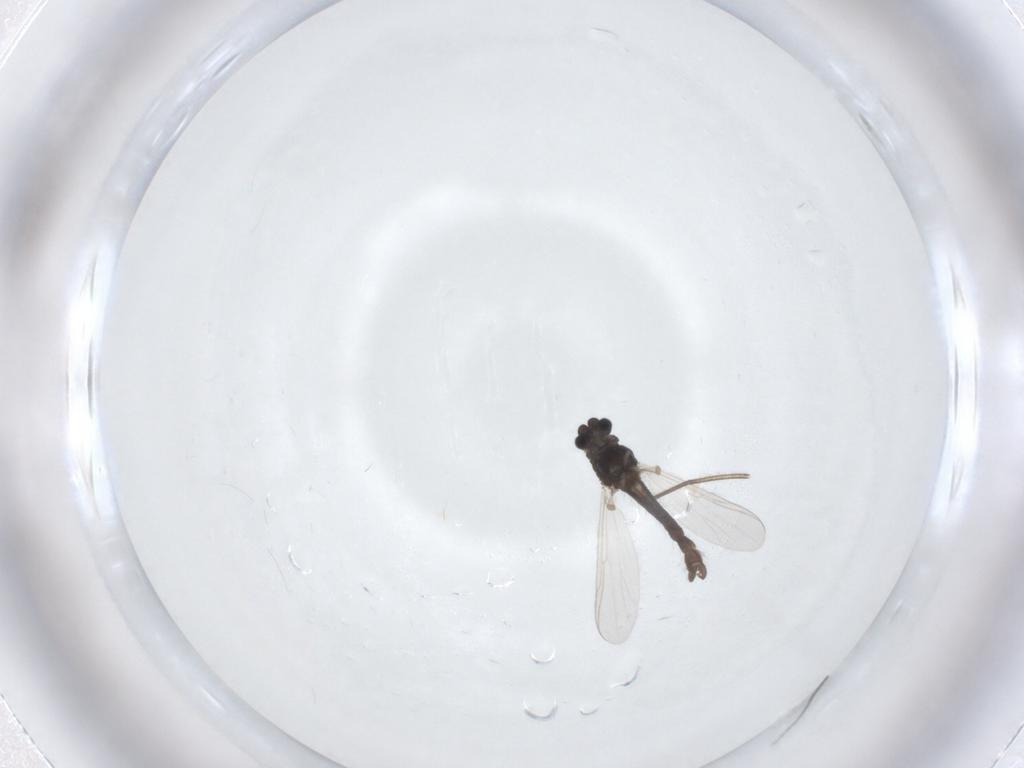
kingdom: Animalia
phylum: Arthropoda
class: Insecta
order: Diptera
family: Chironomidae
